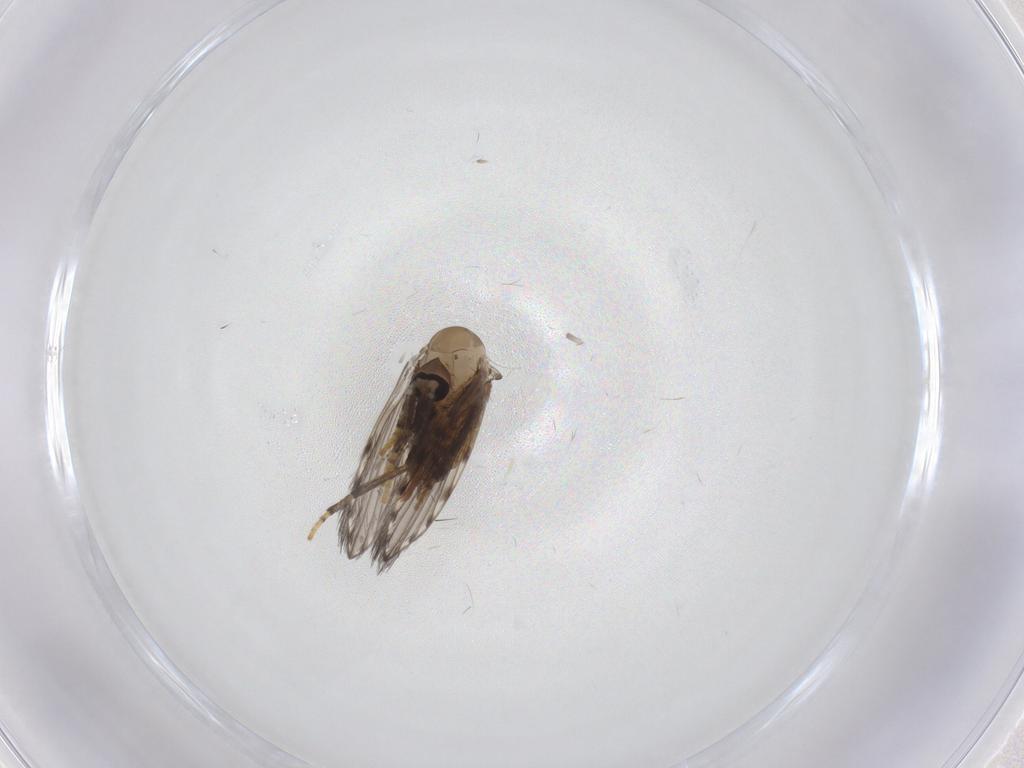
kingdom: Animalia
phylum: Arthropoda
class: Insecta
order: Diptera
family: Psychodidae
